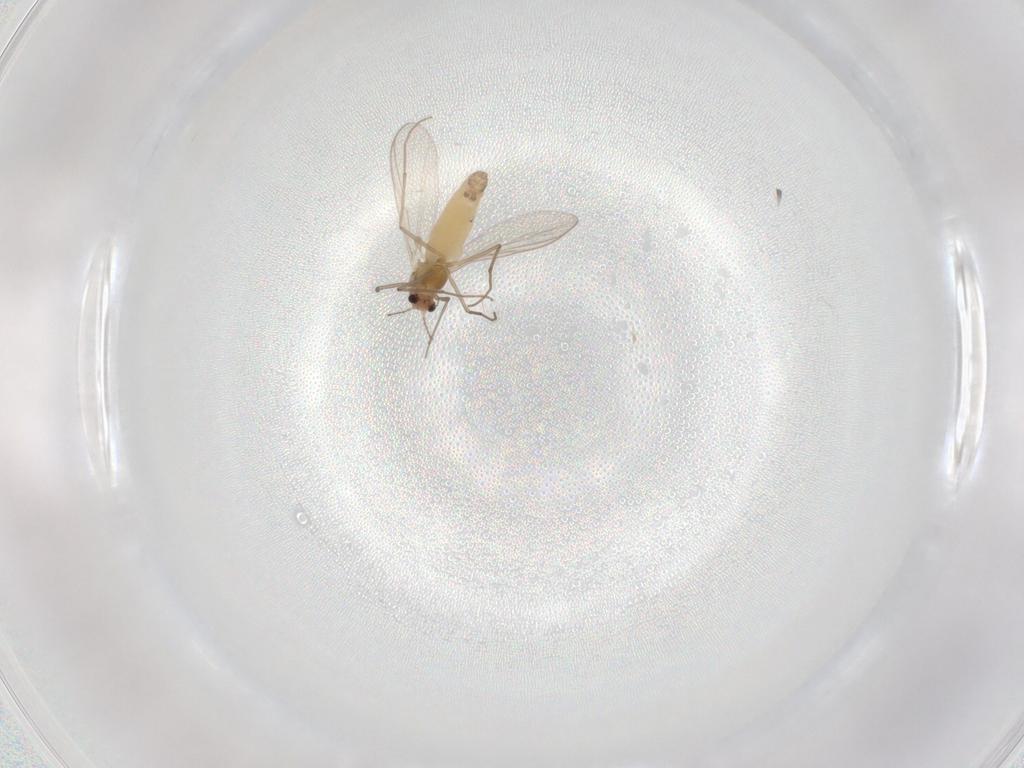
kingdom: Animalia
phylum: Arthropoda
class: Insecta
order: Diptera
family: Chironomidae
